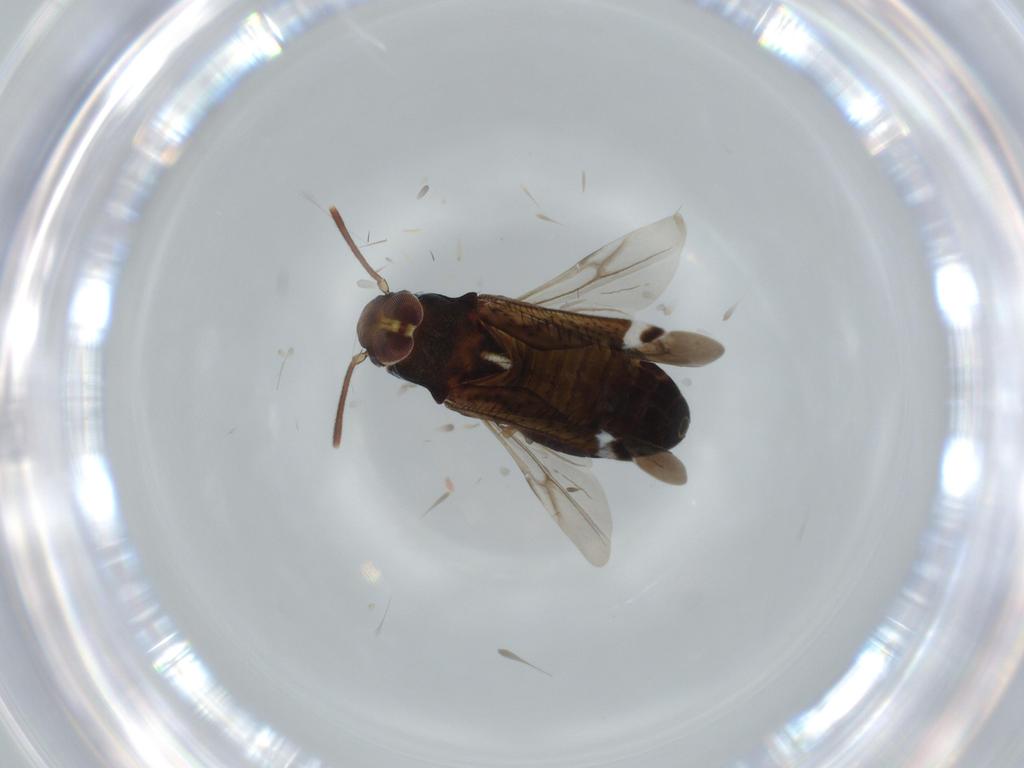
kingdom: Animalia
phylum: Arthropoda
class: Insecta
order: Hemiptera
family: Miridae
